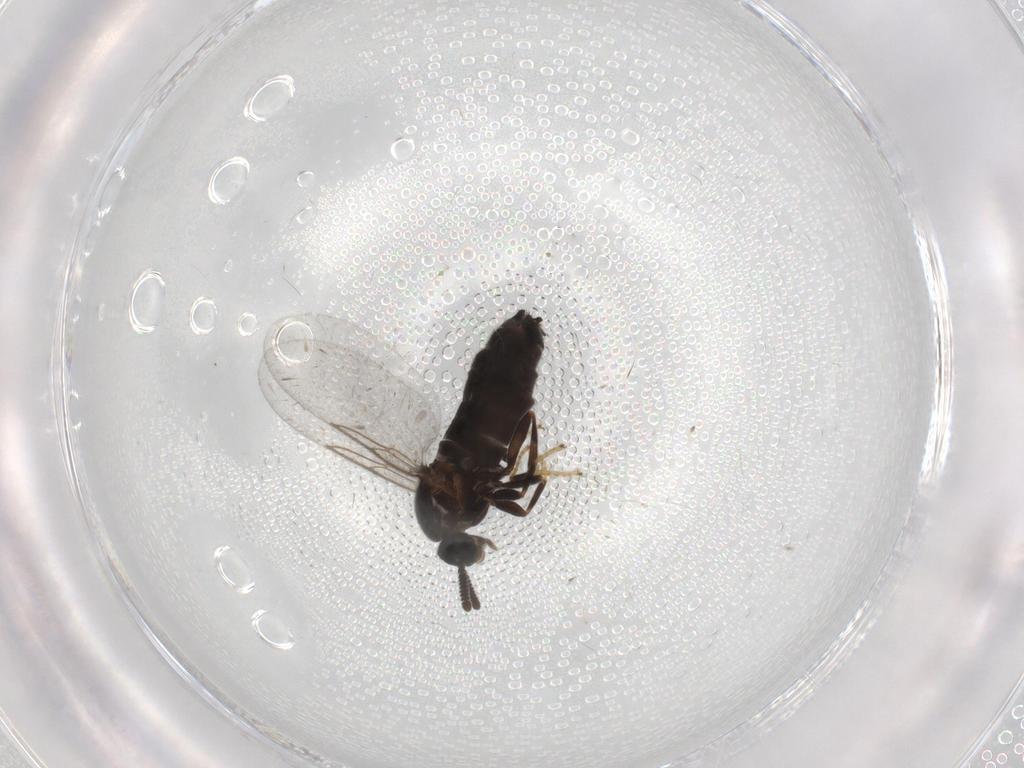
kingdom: Animalia
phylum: Arthropoda
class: Insecta
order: Diptera
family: Scatopsidae
